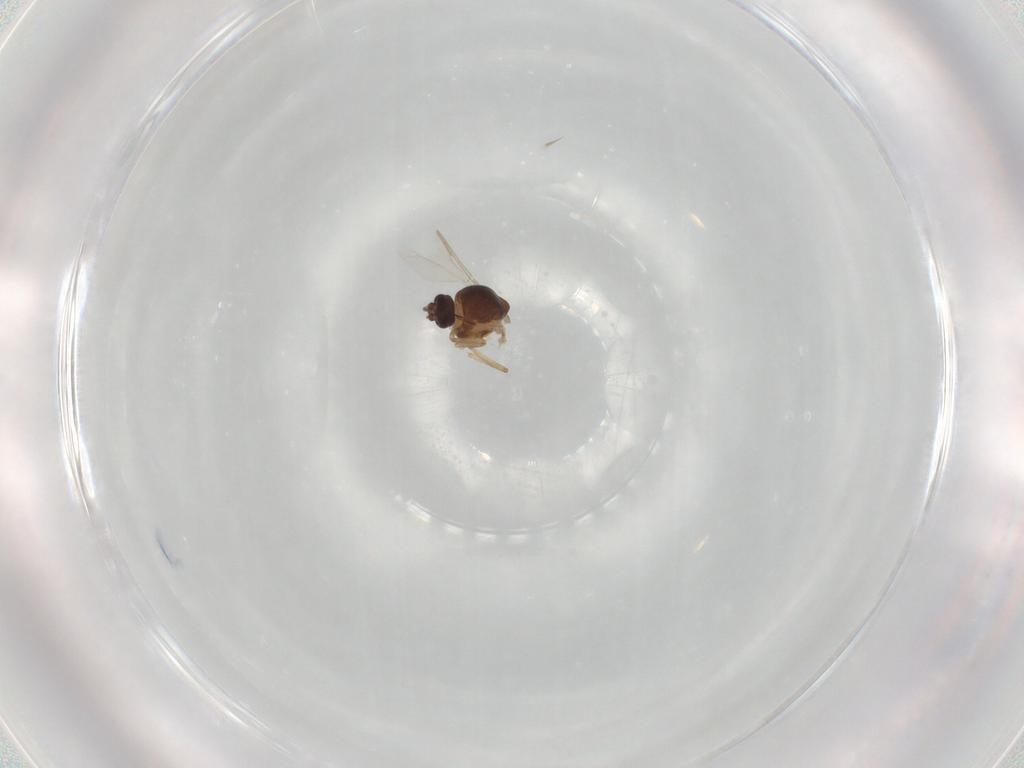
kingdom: Animalia
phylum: Arthropoda
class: Insecta
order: Diptera
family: Ceratopogonidae
